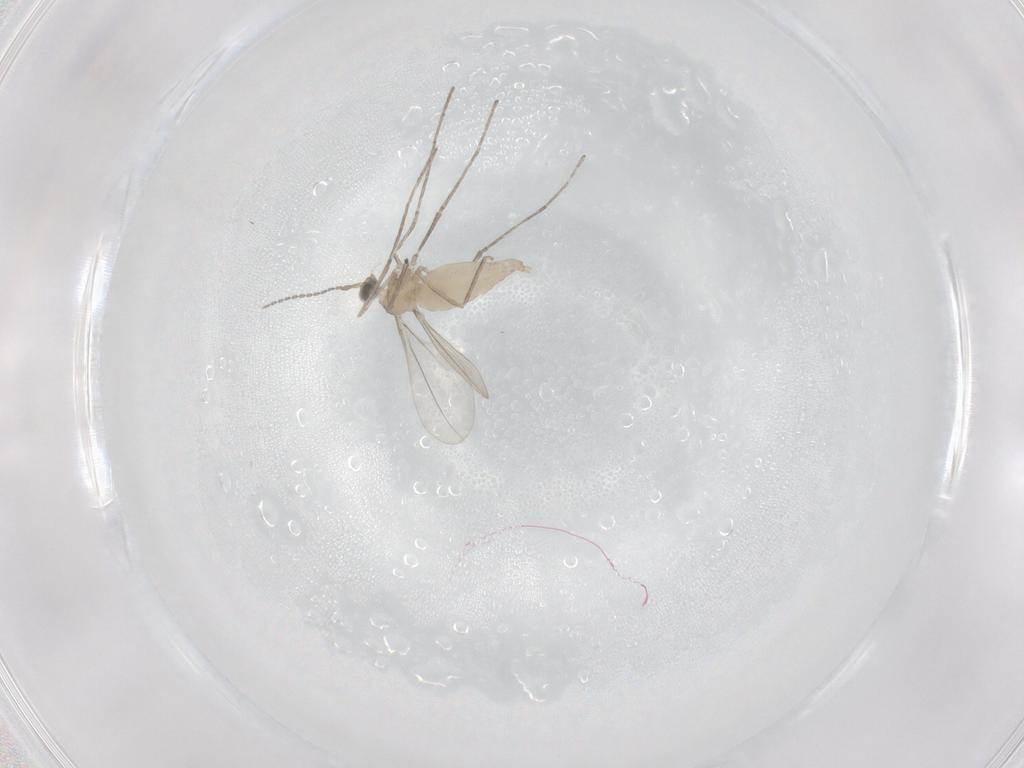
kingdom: Animalia
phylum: Arthropoda
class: Insecta
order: Diptera
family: Cecidomyiidae
